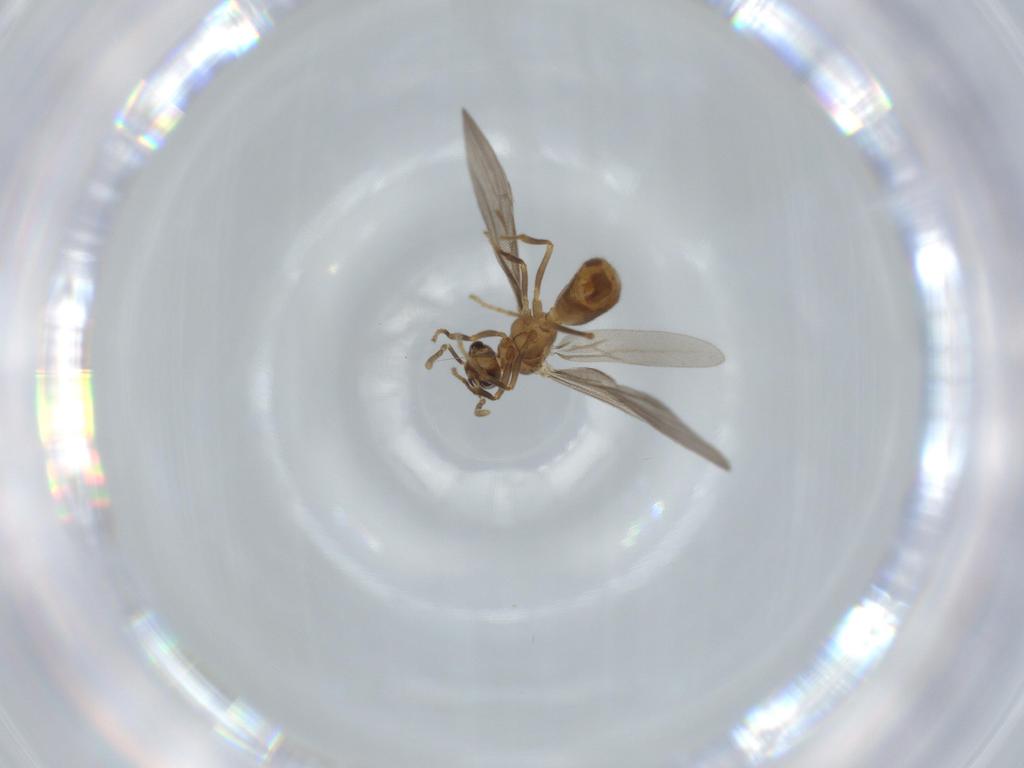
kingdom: Animalia
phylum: Arthropoda
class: Insecta
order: Hymenoptera
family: Formicidae
